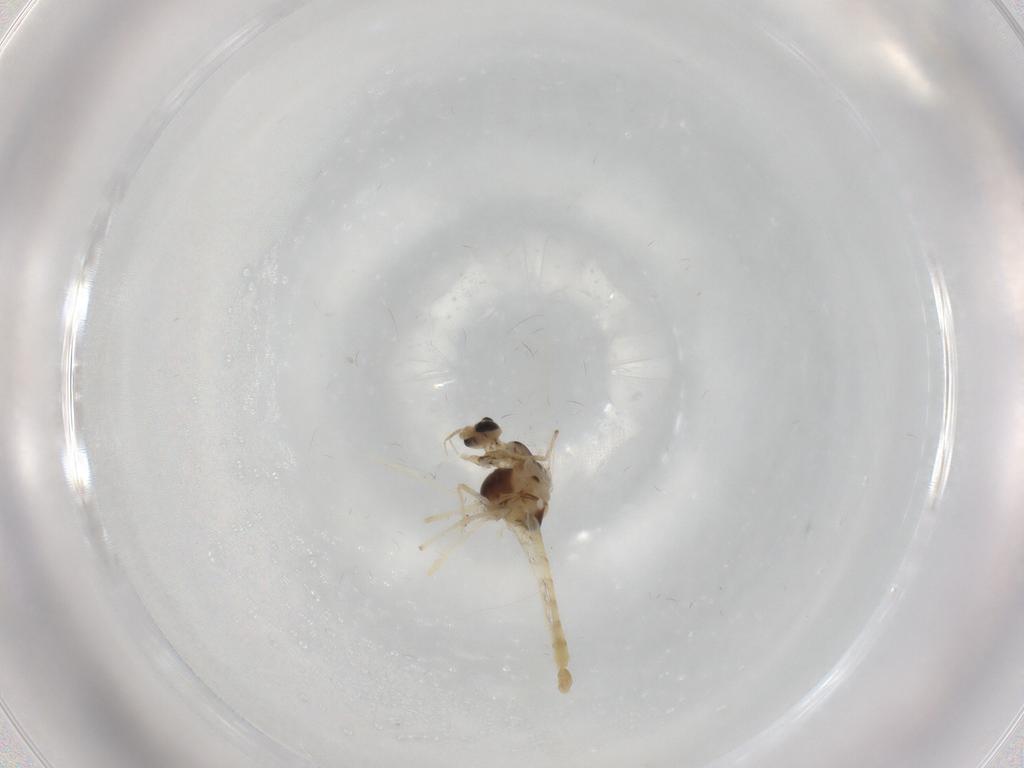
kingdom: Animalia
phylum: Arthropoda
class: Insecta
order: Diptera
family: Chironomidae
